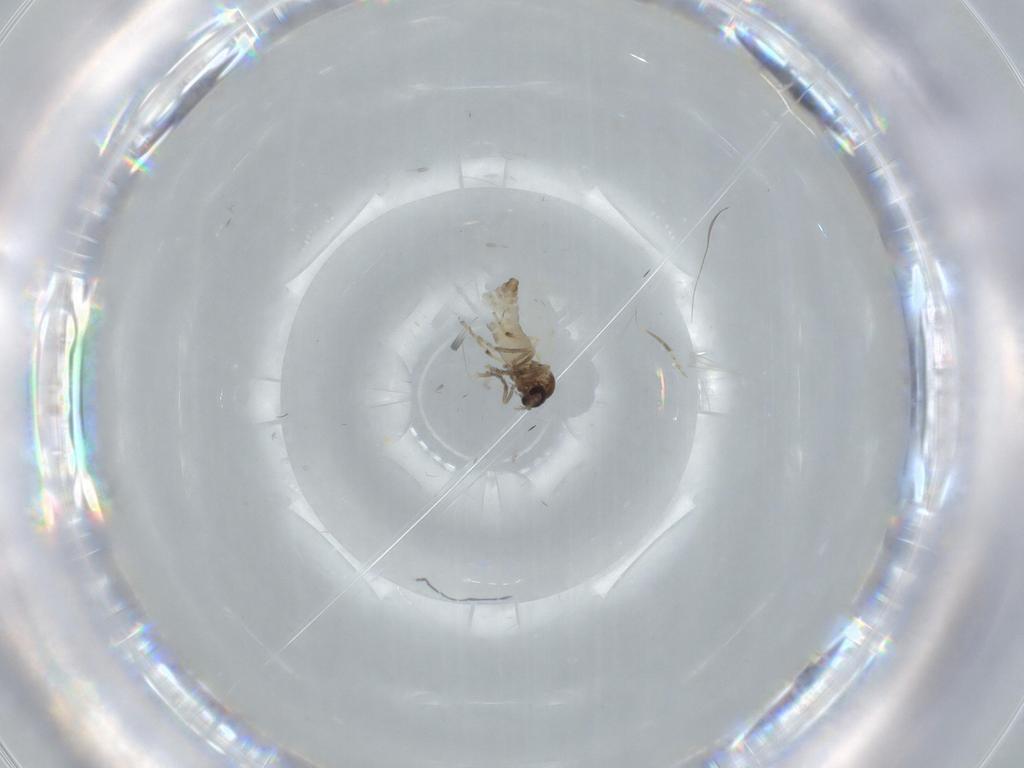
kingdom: Animalia
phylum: Arthropoda
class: Insecta
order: Diptera
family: Ceratopogonidae
